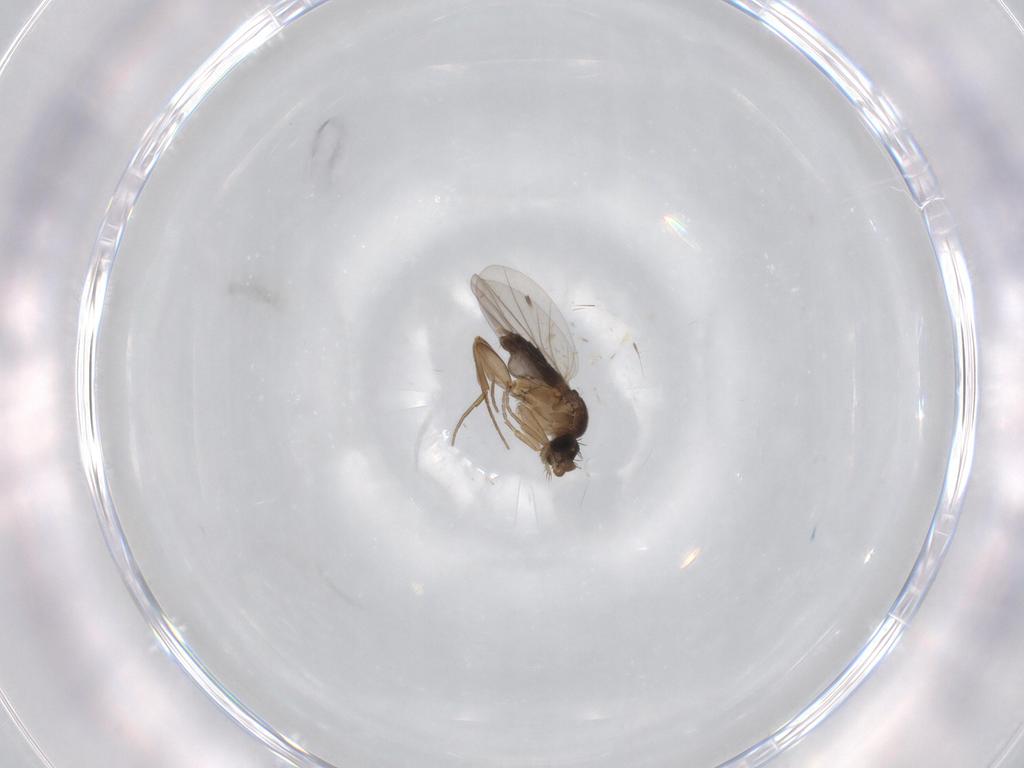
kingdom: Animalia
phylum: Arthropoda
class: Insecta
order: Diptera
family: Phoridae
